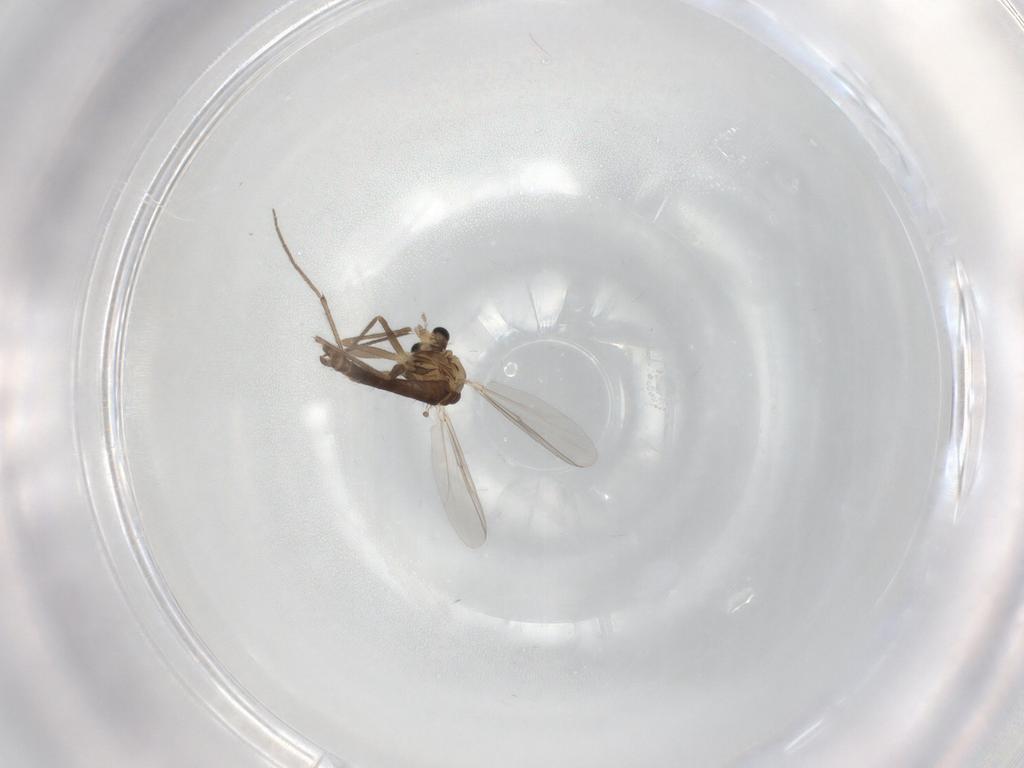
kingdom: Animalia
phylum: Arthropoda
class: Insecta
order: Diptera
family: Chironomidae
